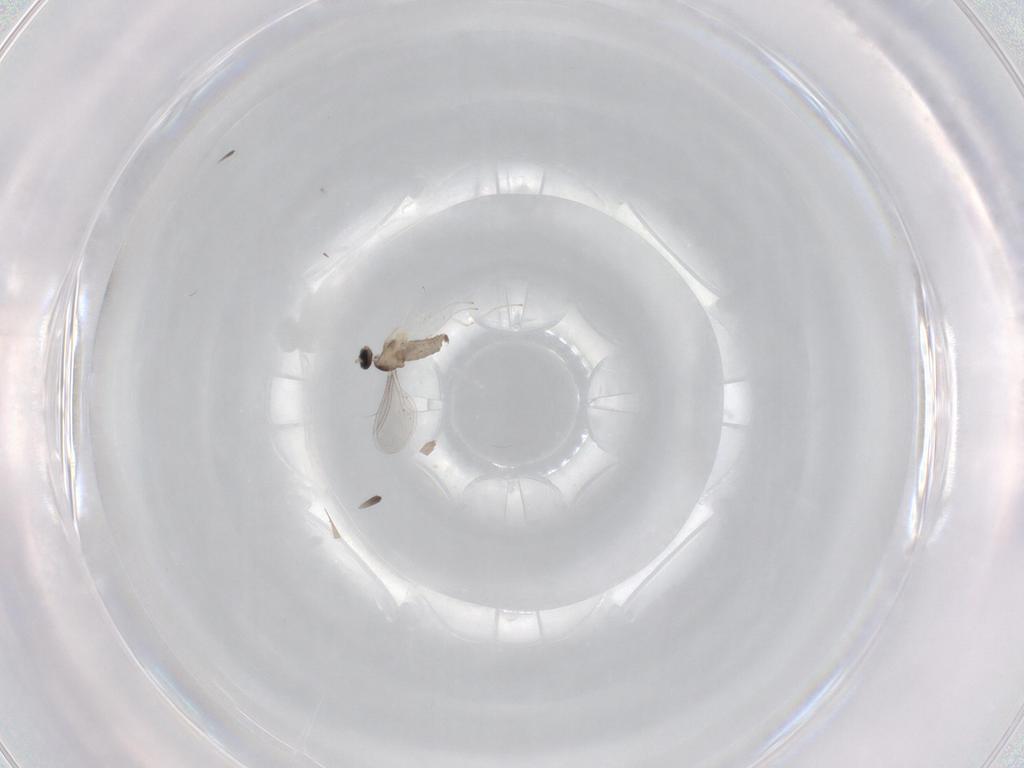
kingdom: Animalia
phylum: Arthropoda
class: Insecta
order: Diptera
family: Cecidomyiidae
